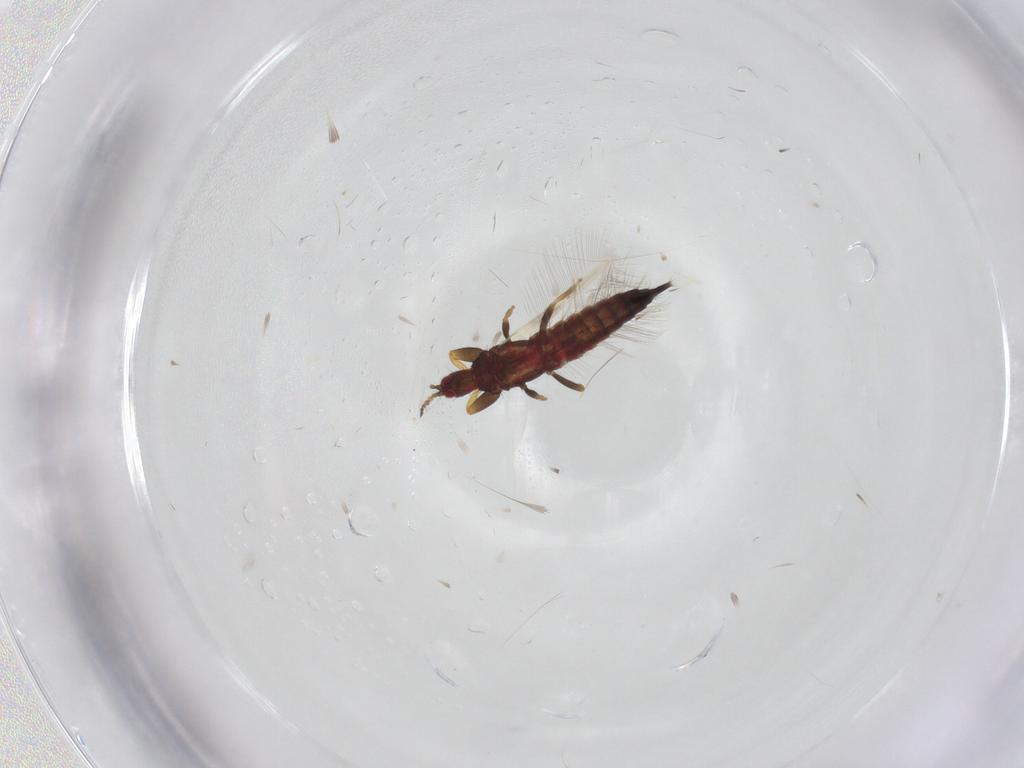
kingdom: Animalia
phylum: Arthropoda
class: Insecta
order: Thysanoptera
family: Phlaeothripidae
